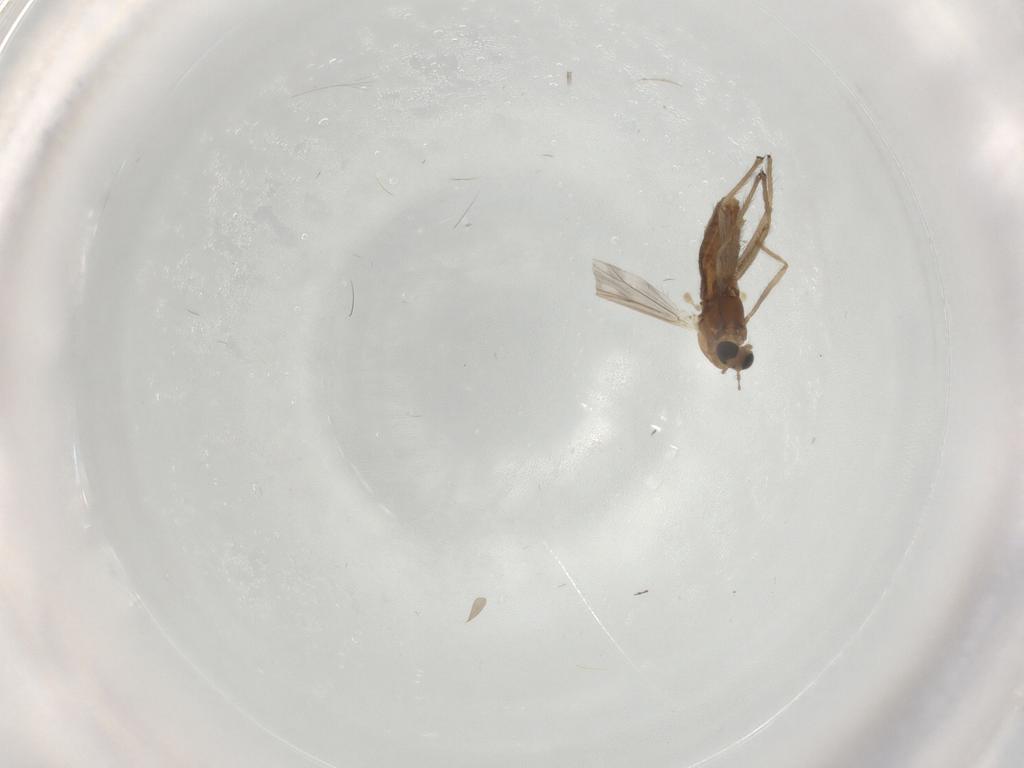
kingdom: Animalia
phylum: Arthropoda
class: Insecta
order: Diptera
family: Chironomidae
